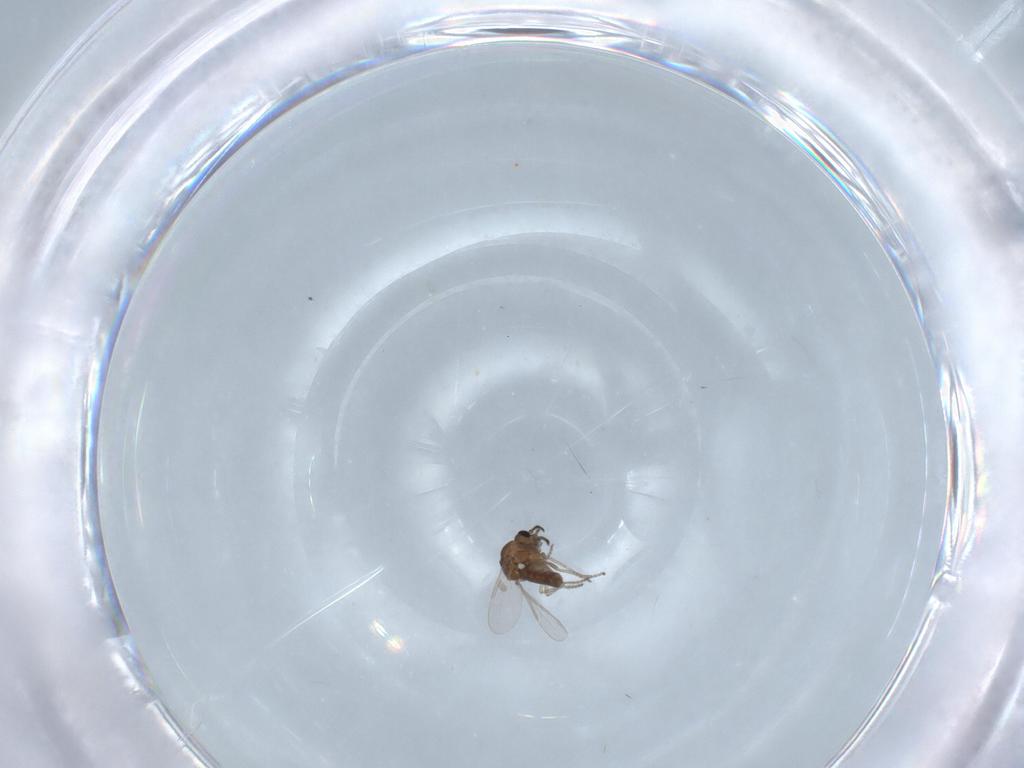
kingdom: Animalia
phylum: Arthropoda
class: Insecta
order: Diptera
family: Ceratopogonidae
